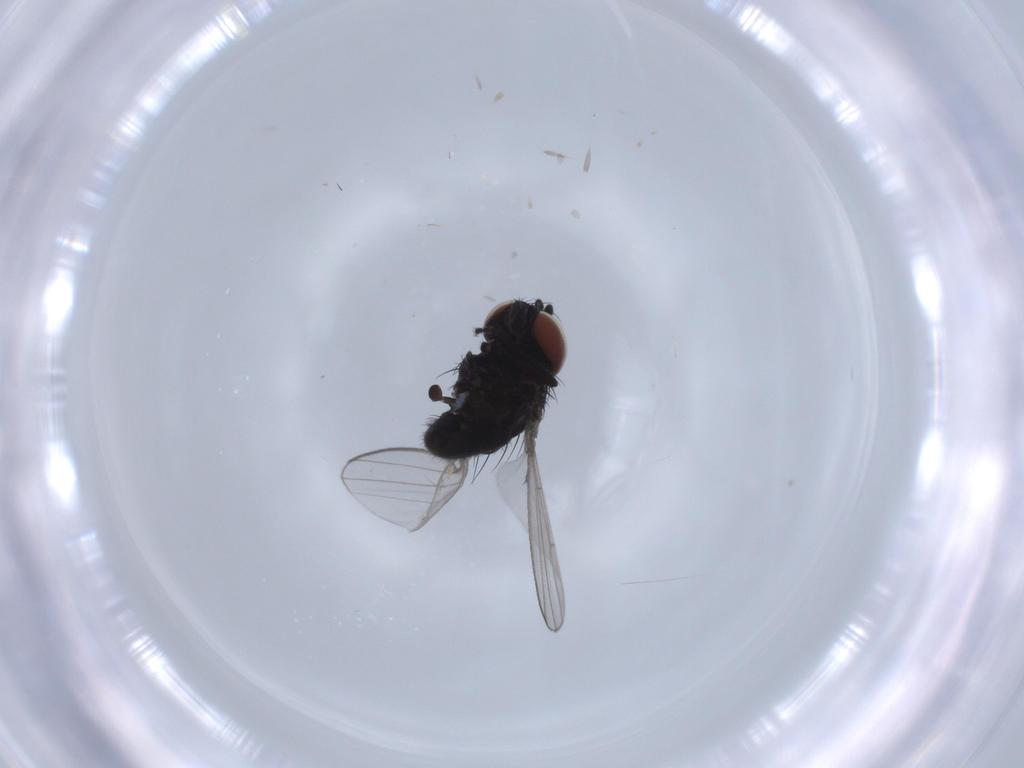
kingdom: Animalia
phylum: Arthropoda
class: Insecta
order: Diptera
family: Milichiidae
